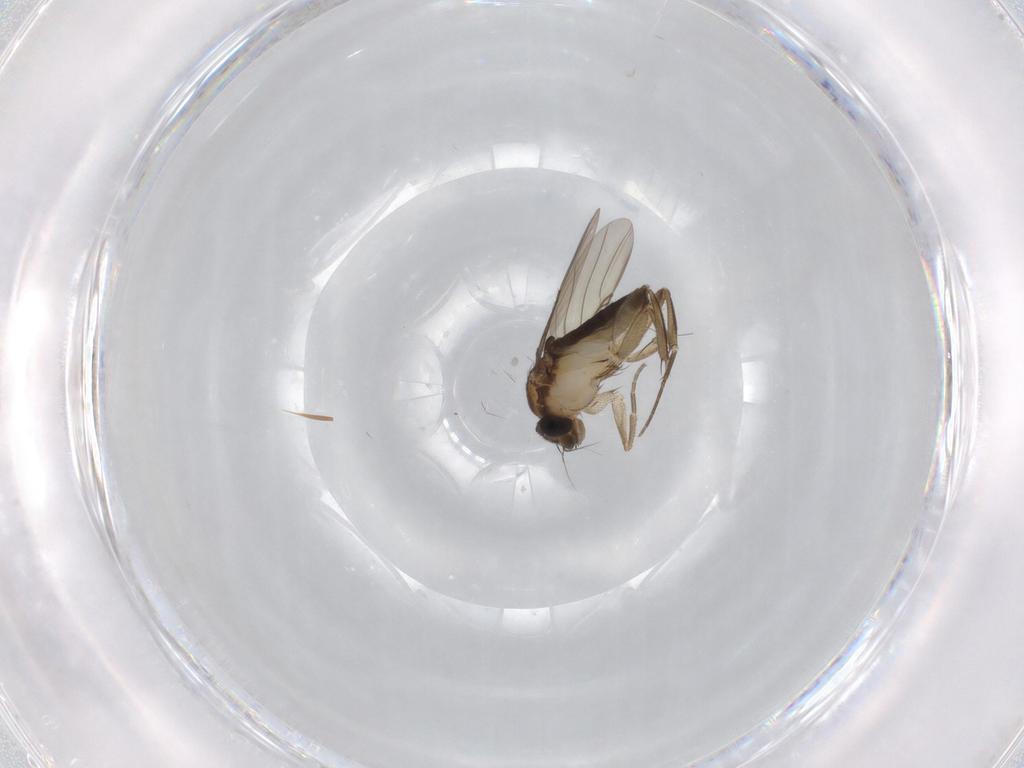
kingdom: Animalia
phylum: Arthropoda
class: Insecta
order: Diptera
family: Phoridae
